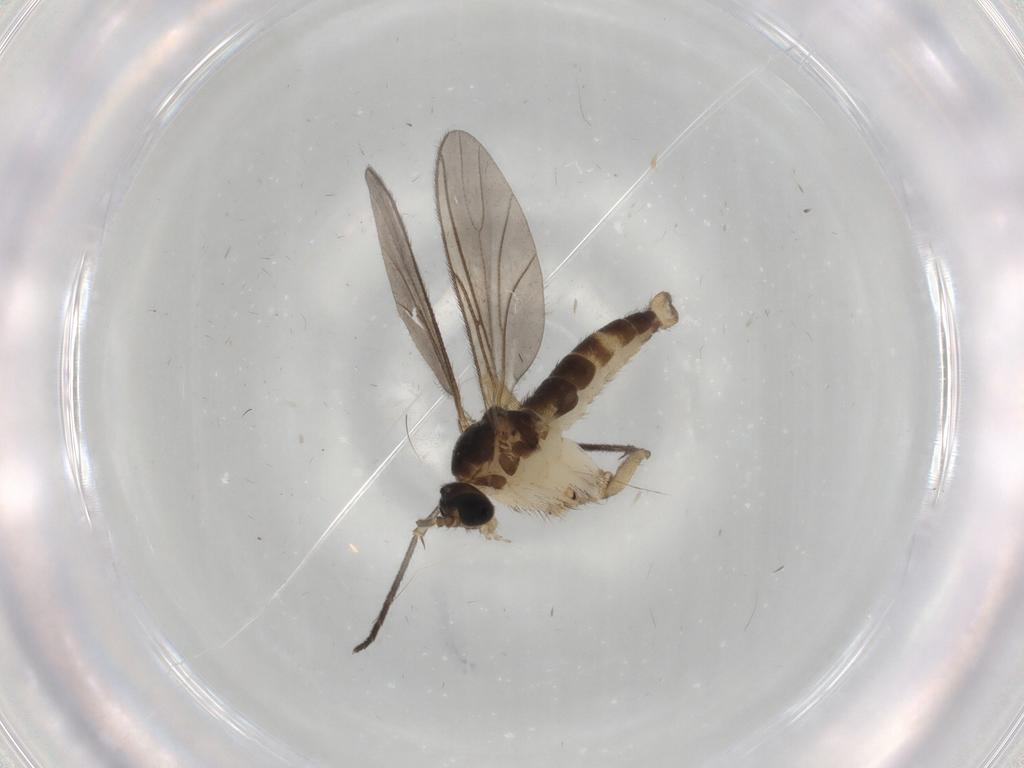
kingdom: Animalia
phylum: Arthropoda
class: Insecta
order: Diptera
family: Sciaridae
